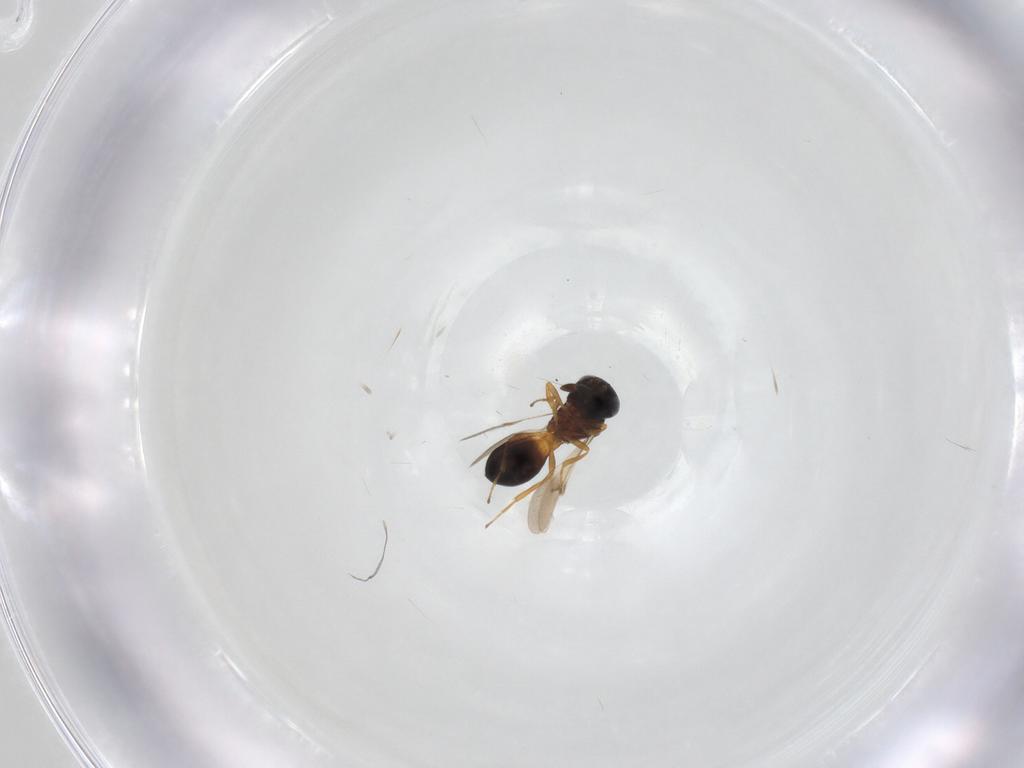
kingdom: Animalia
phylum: Arthropoda
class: Insecta
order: Hymenoptera
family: Scelionidae
